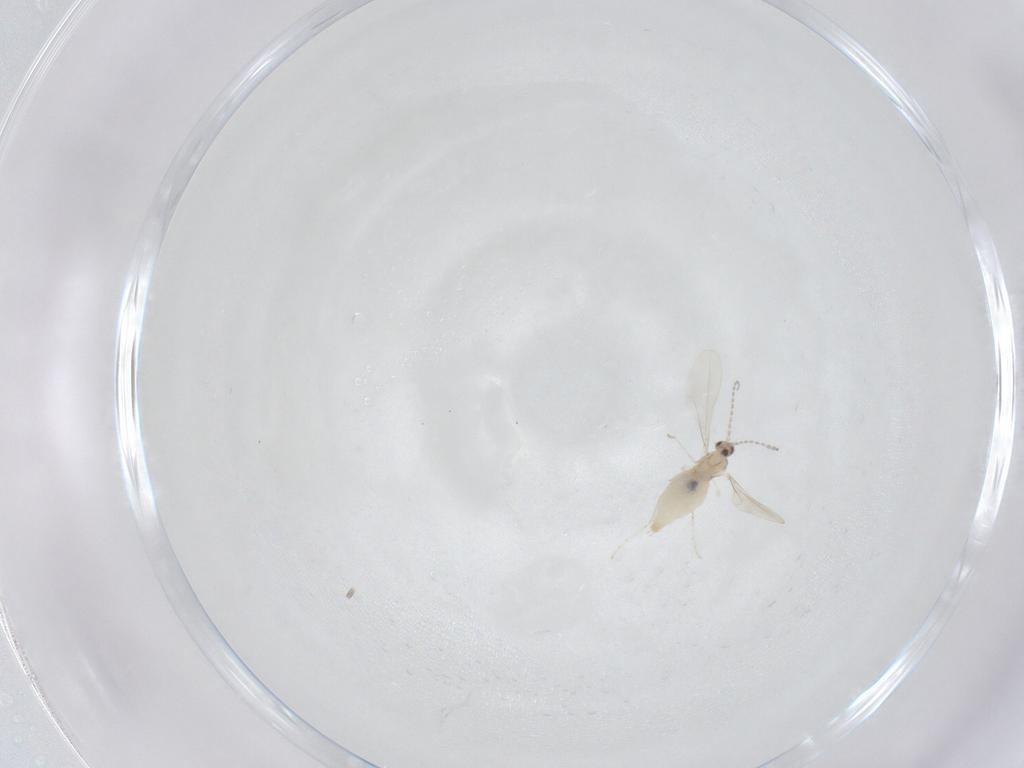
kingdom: Animalia
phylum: Arthropoda
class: Insecta
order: Diptera
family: Cecidomyiidae
